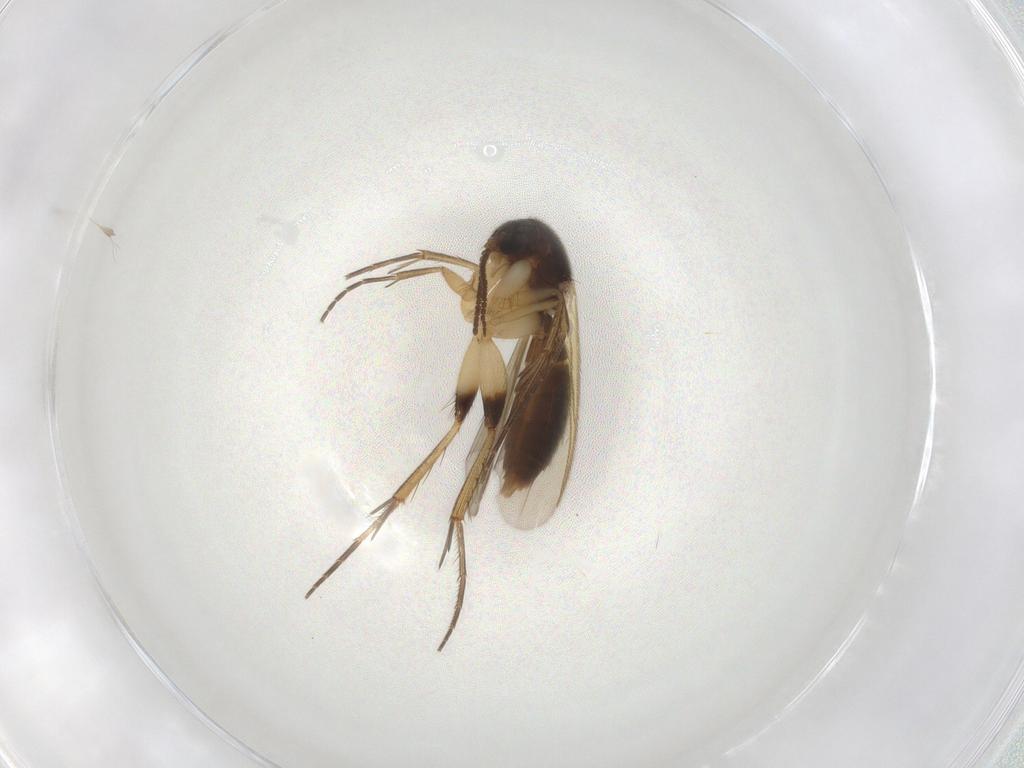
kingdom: Animalia
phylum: Arthropoda
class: Insecta
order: Diptera
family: Mycetophilidae
